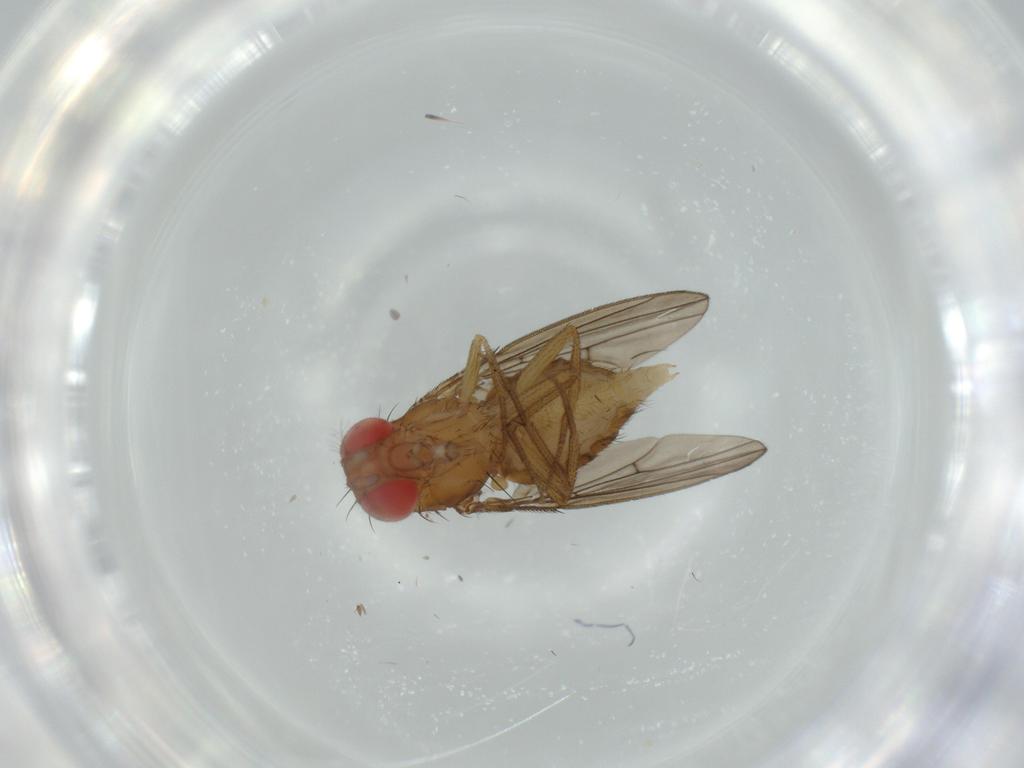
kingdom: Animalia
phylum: Arthropoda
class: Insecta
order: Diptera
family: Drosophilidae
